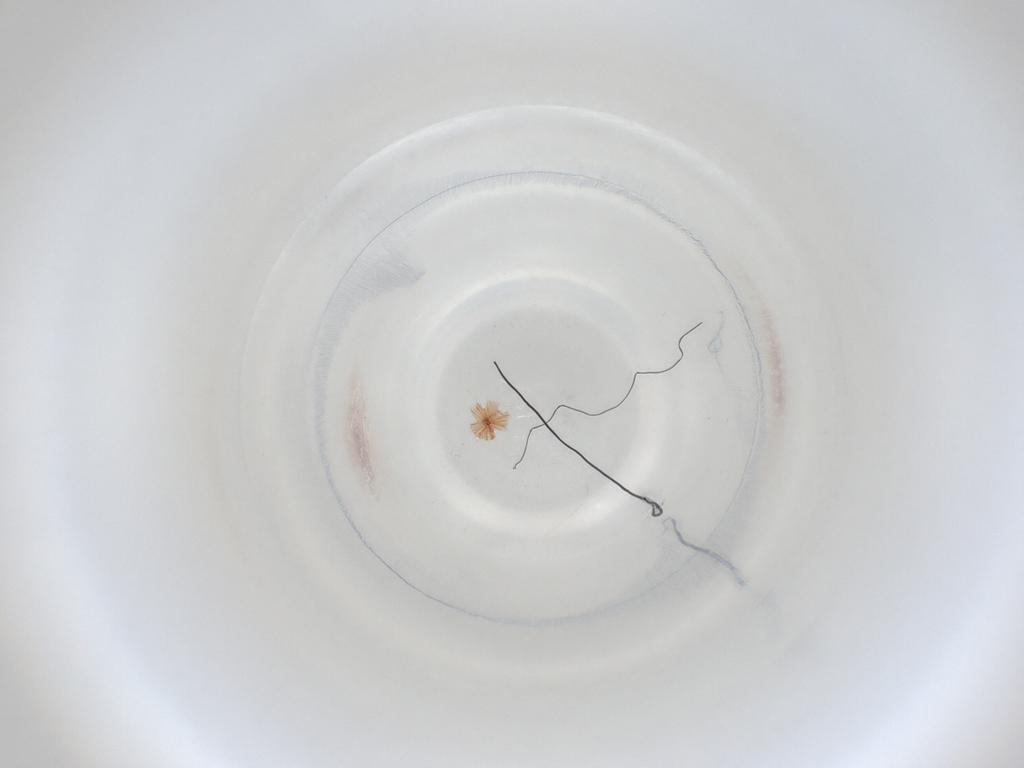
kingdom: Animalia
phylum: Arthropoda
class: Insecta
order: Diptera
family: Cecidomyiidae
